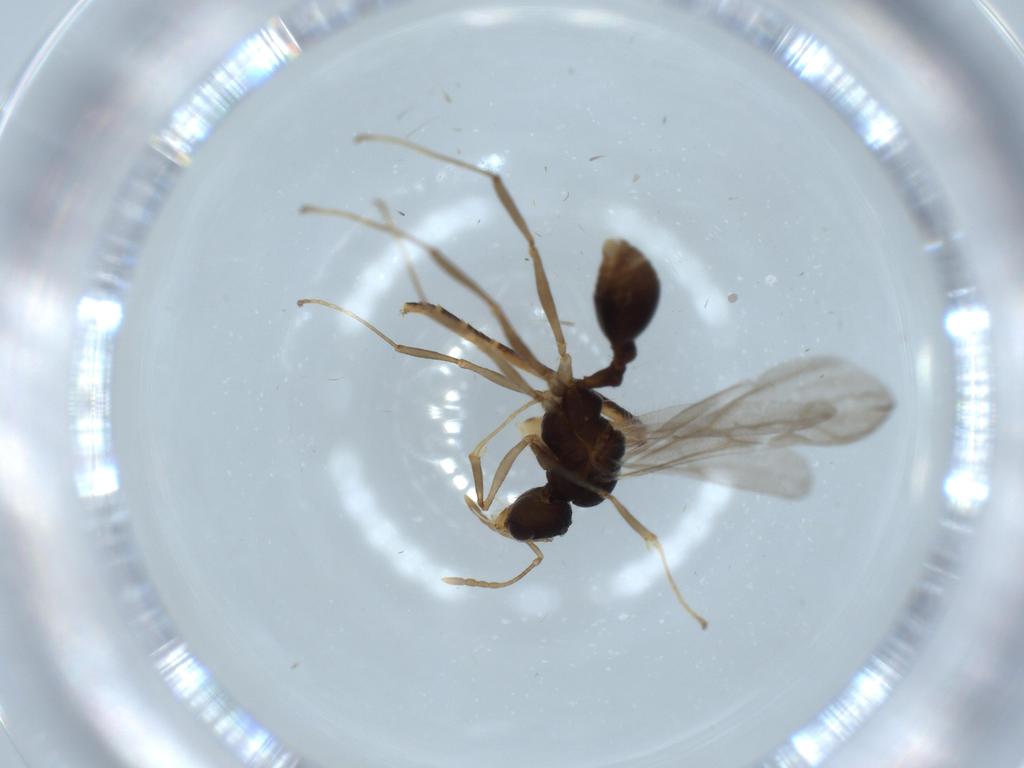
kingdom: Animalia
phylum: Arthropoda
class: Insecta
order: Hymenoptera
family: Formicidae
